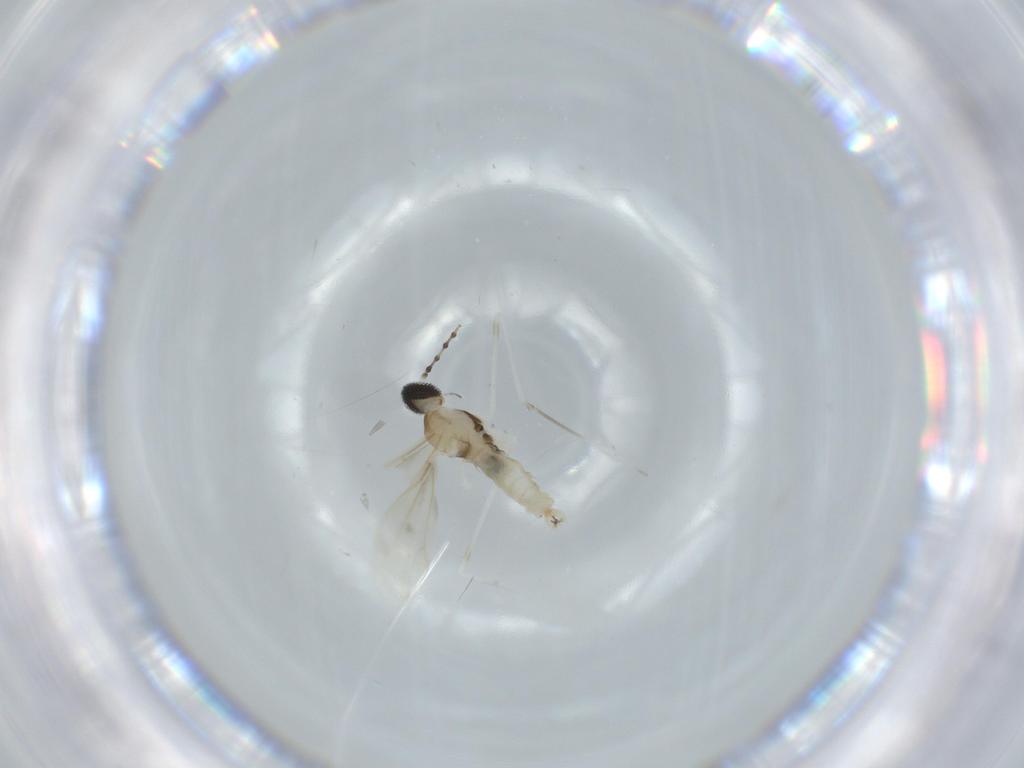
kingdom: Animalia
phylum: Arthropoda
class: Insecta
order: Diptera
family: Cecidomyiidae
